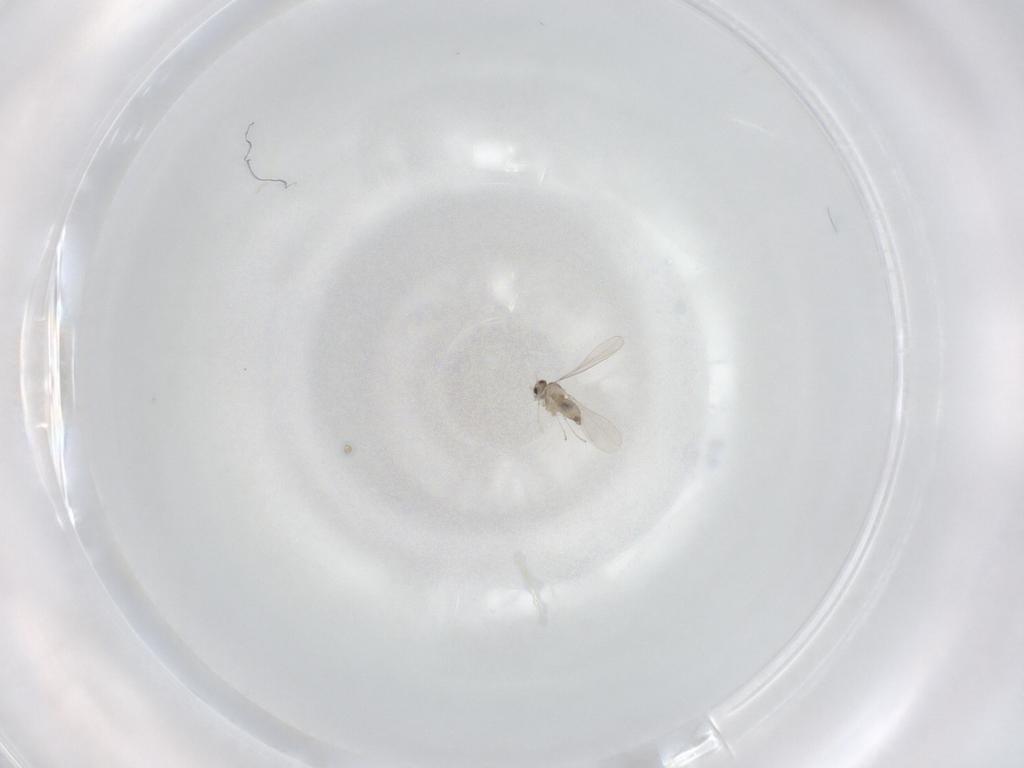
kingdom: Animalia
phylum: Arthropoda
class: Insecta
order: Diptera
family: Cecidomyiidae
